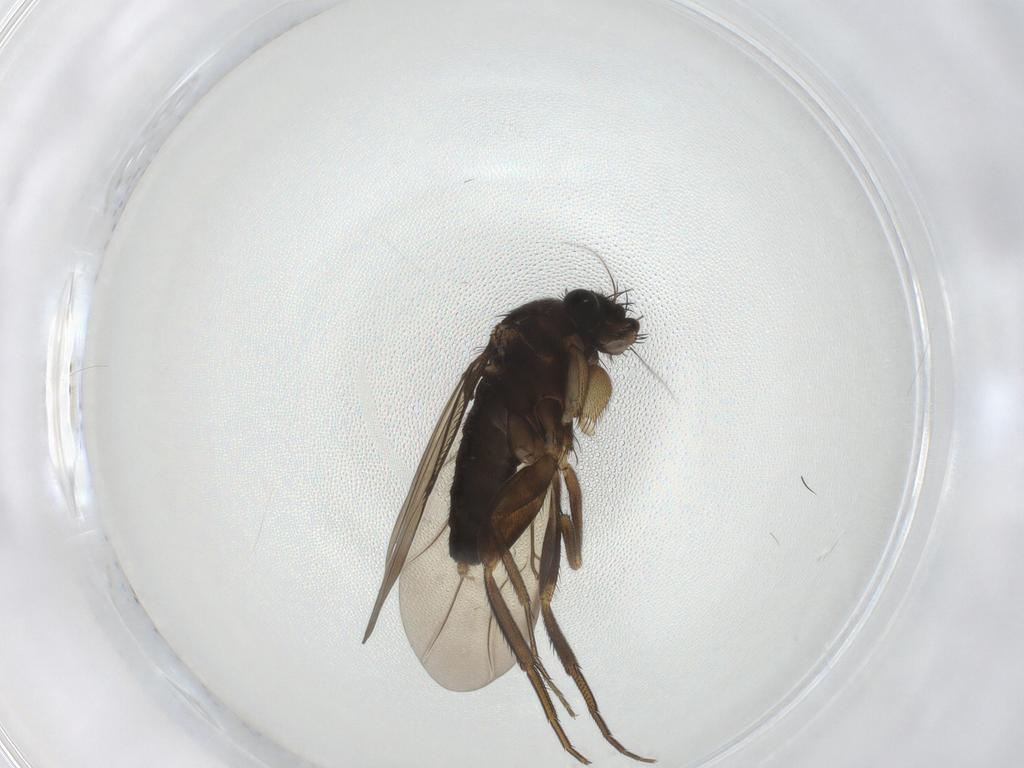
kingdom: Animalia
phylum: Arthropoda
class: Insecta
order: Diptera
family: Phoridae
